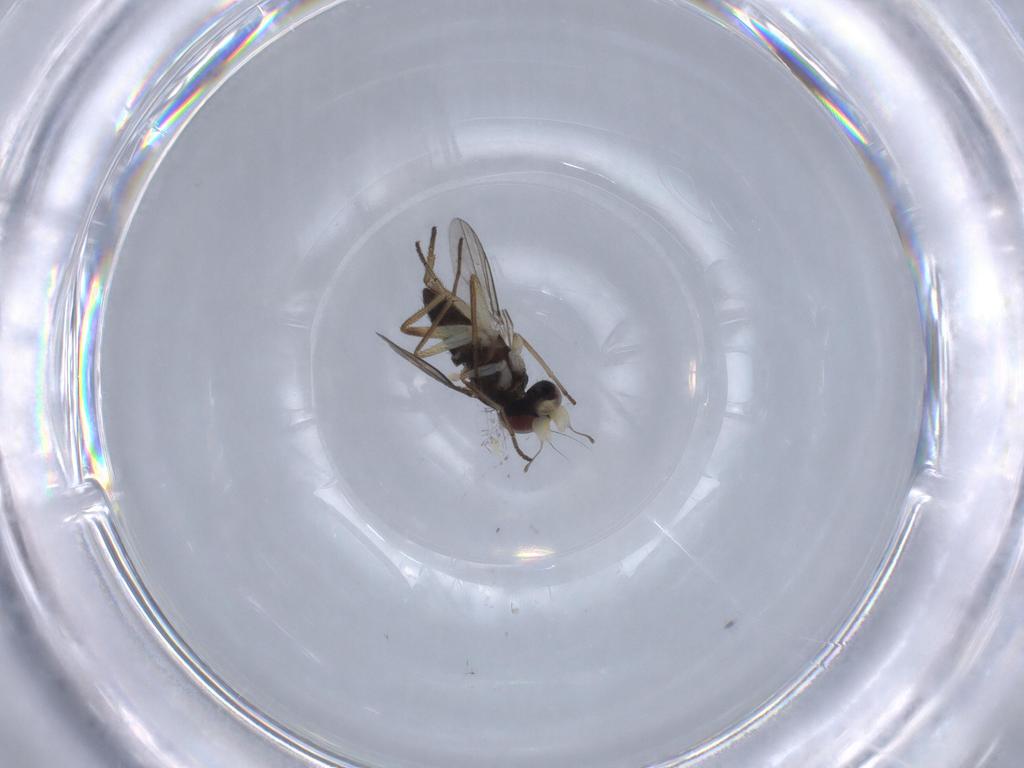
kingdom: Animalia
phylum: Arthropoda
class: Insecta
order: Diptera
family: Dolichopodidae
